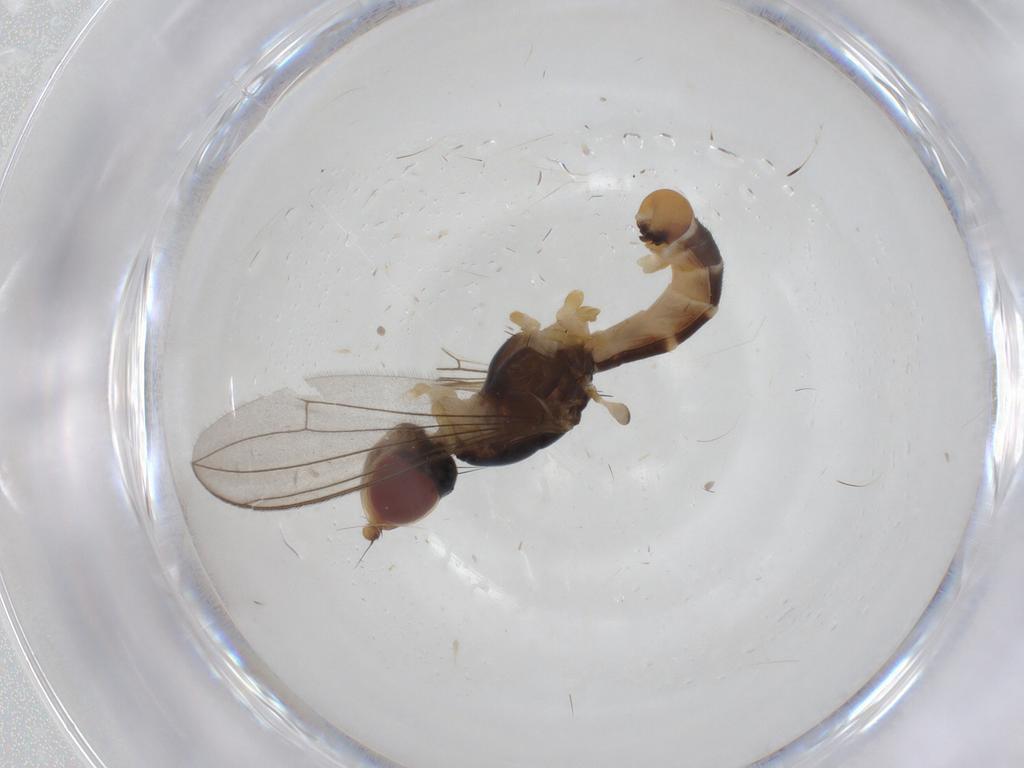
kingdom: Animalia
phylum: Arthropoda
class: Insecta
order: Diptera
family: Micropezidae
